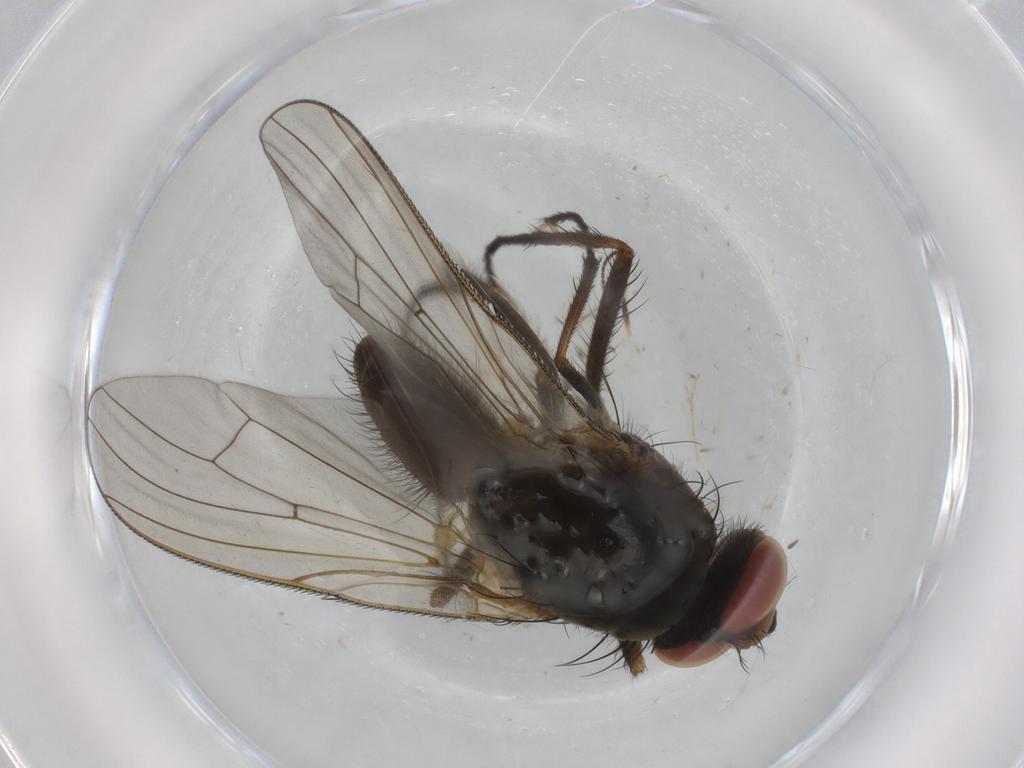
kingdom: Animalia
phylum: Arthropoda
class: Insecta
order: Diptera
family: Anthomyiidae
